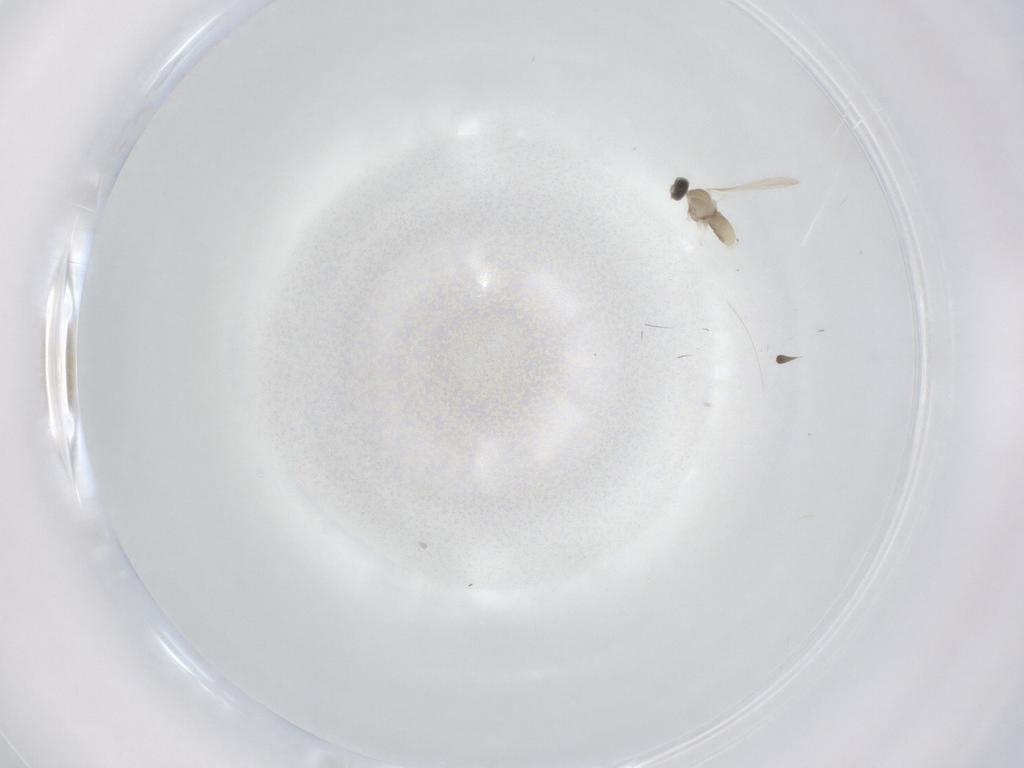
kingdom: Animalia
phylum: Arthropoda
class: Insecta
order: Diptera
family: Cecidomyiidae
